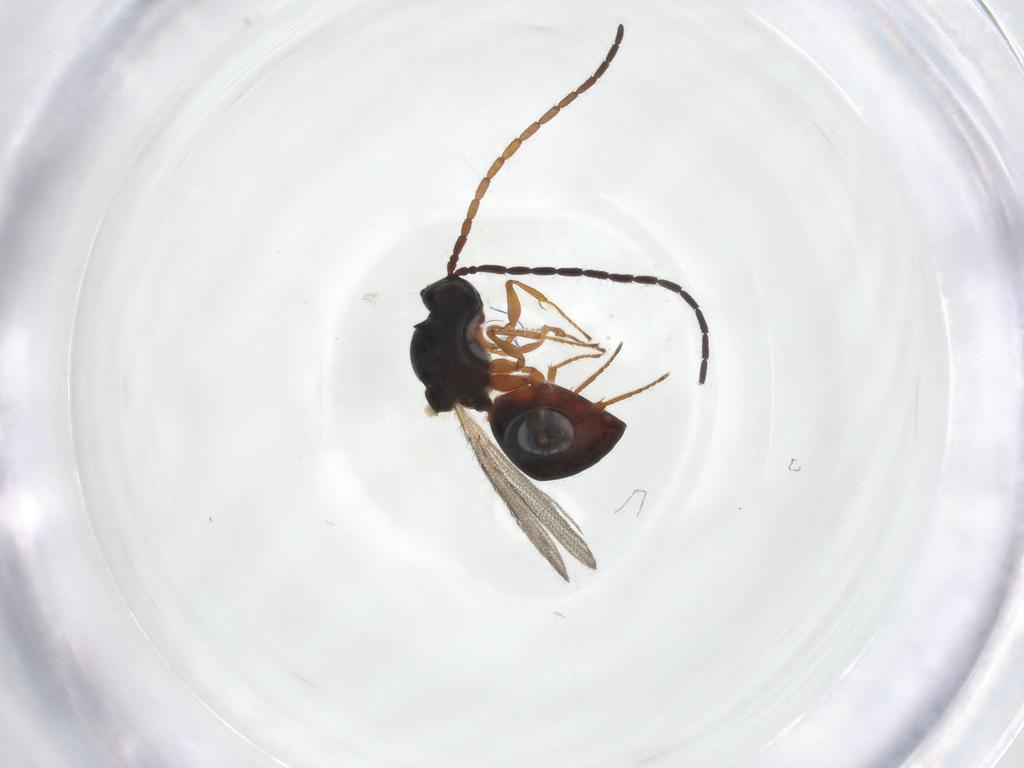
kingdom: Animalia
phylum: Arthropoda
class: Insecta
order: Hymenoptera
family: Figitidae
